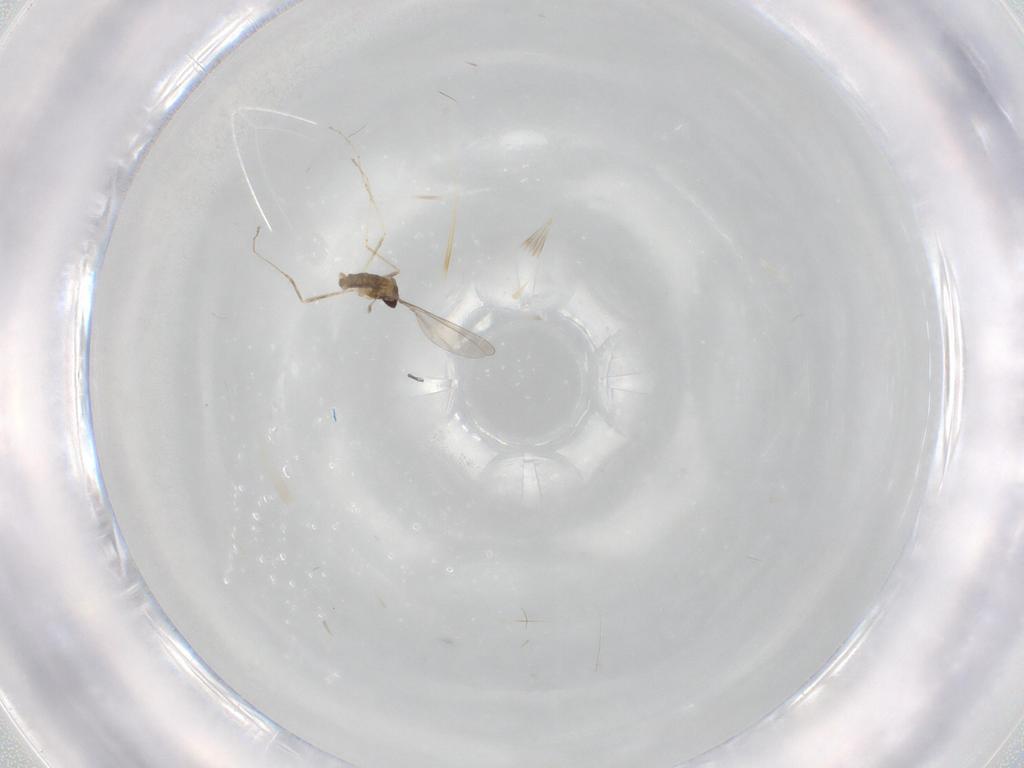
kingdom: Animalia
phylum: Arthropoda
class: Insecta
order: Diptera
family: Cecidomyiidae
